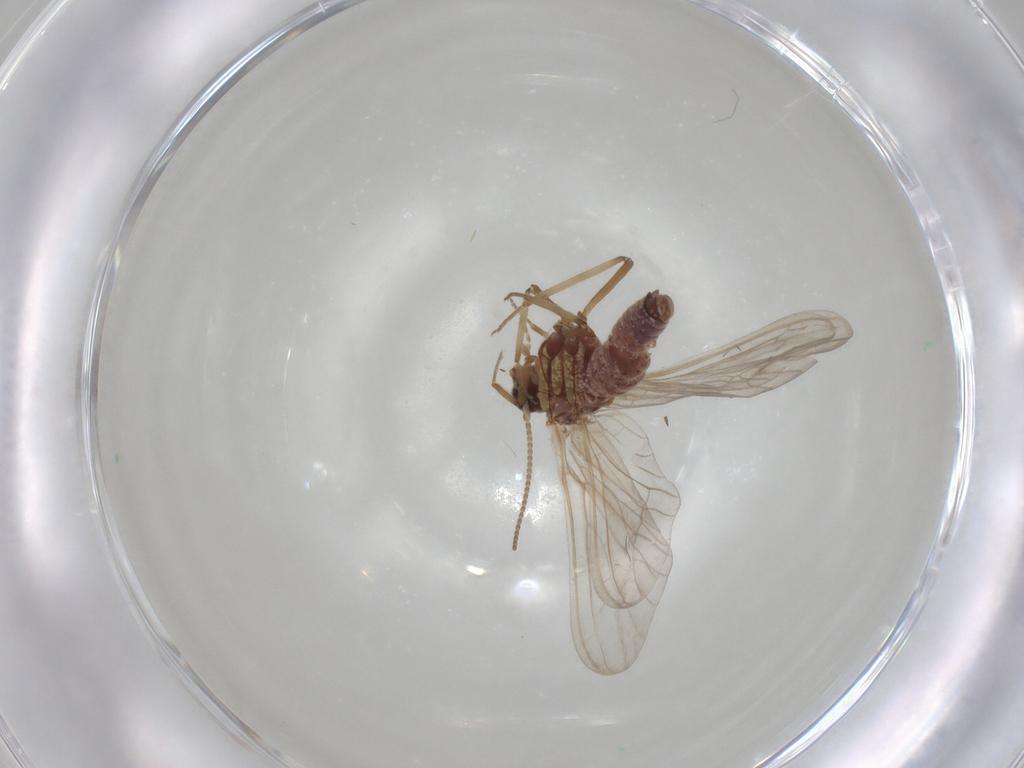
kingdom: Animalia
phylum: Arthropoda
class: Insecta
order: Neuroptera
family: Coniopterygidae
